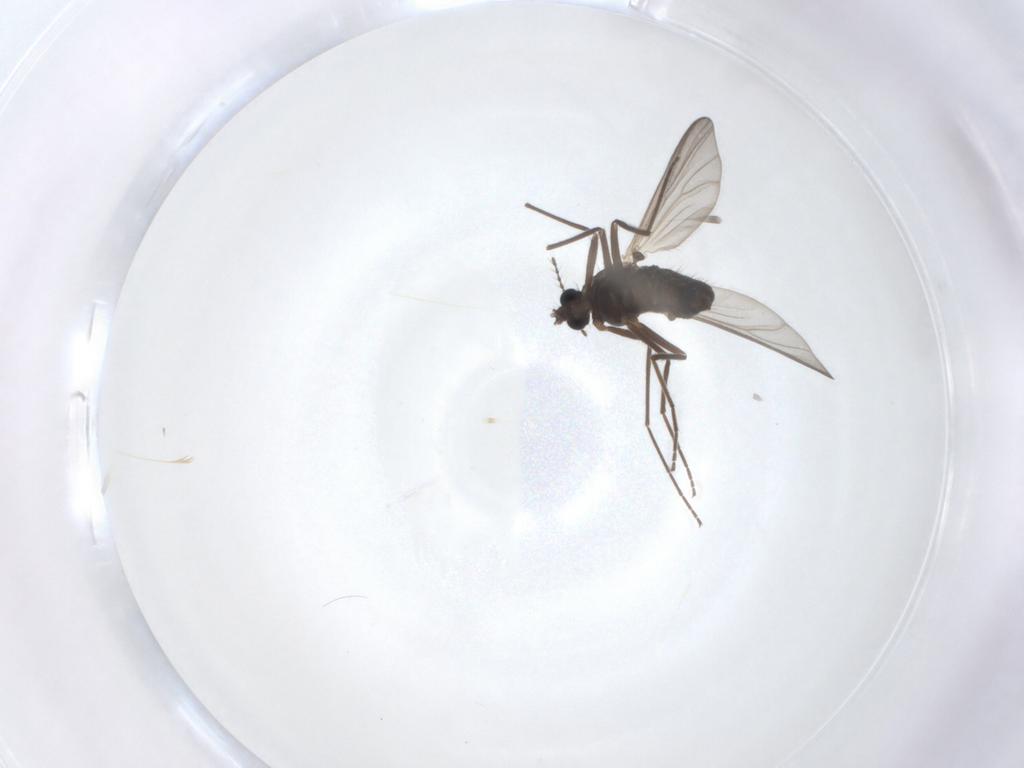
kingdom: Animalia
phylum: Arthropoda
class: Insecta
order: Diptera
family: Chironomidae
